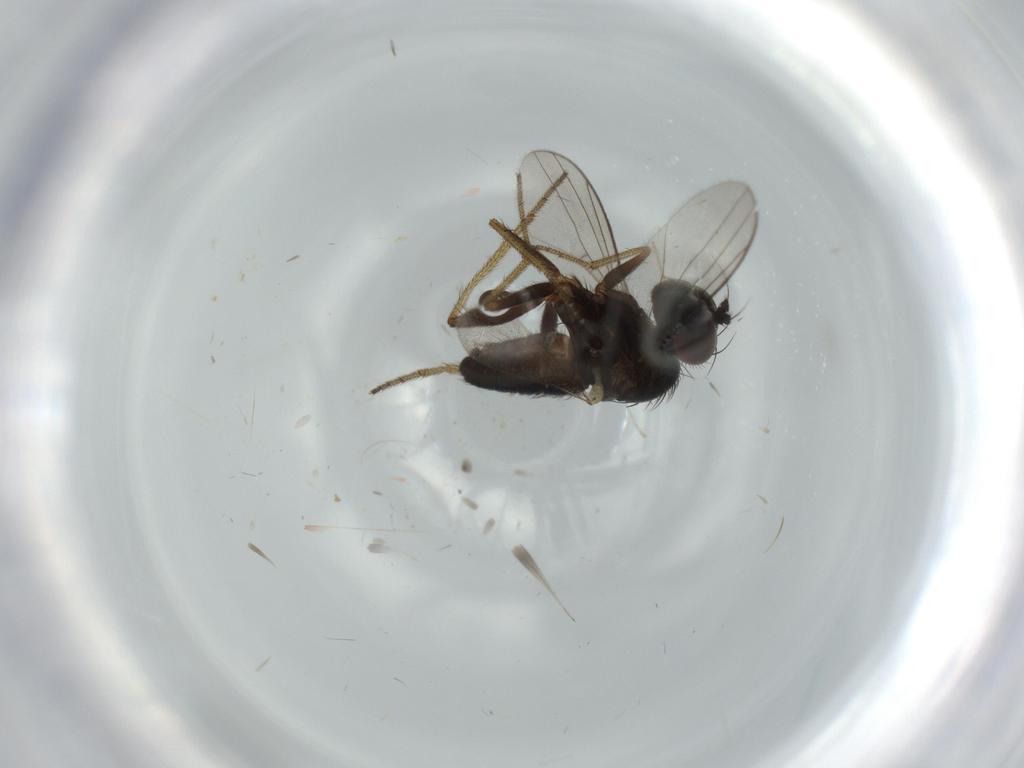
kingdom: Animalia
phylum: Arthropoda
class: Insecta
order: Diptera
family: Dolichopodidae
